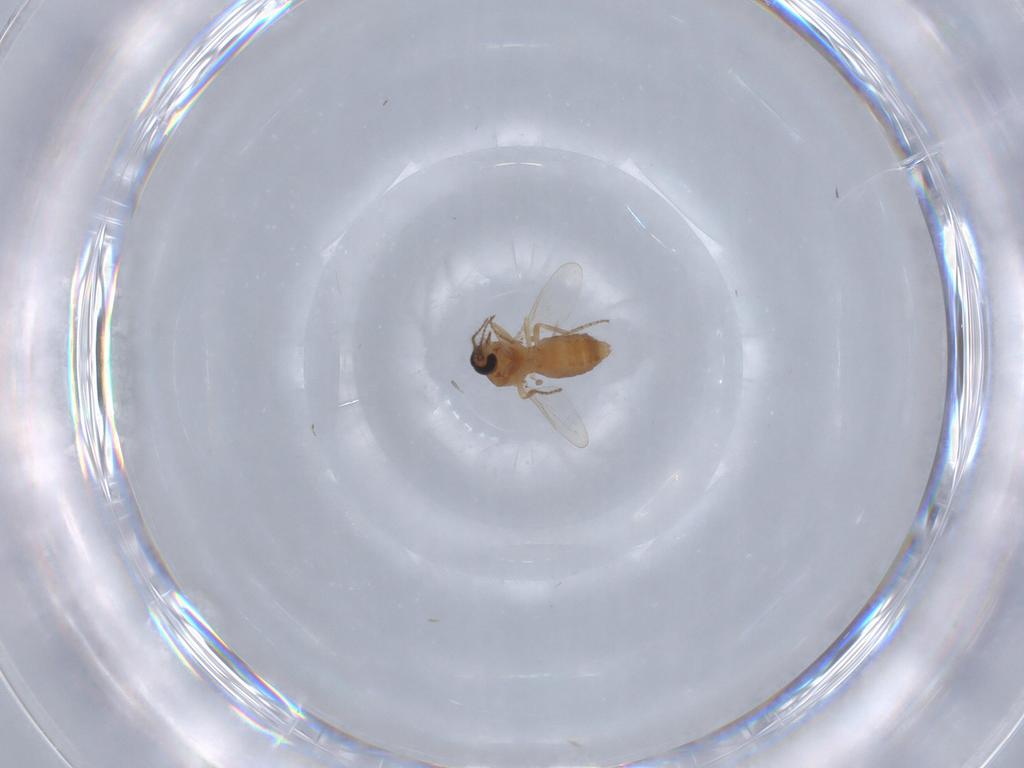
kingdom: Animalia
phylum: Arthropoda
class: Insecta
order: Diptera
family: Ceratopogonidae
